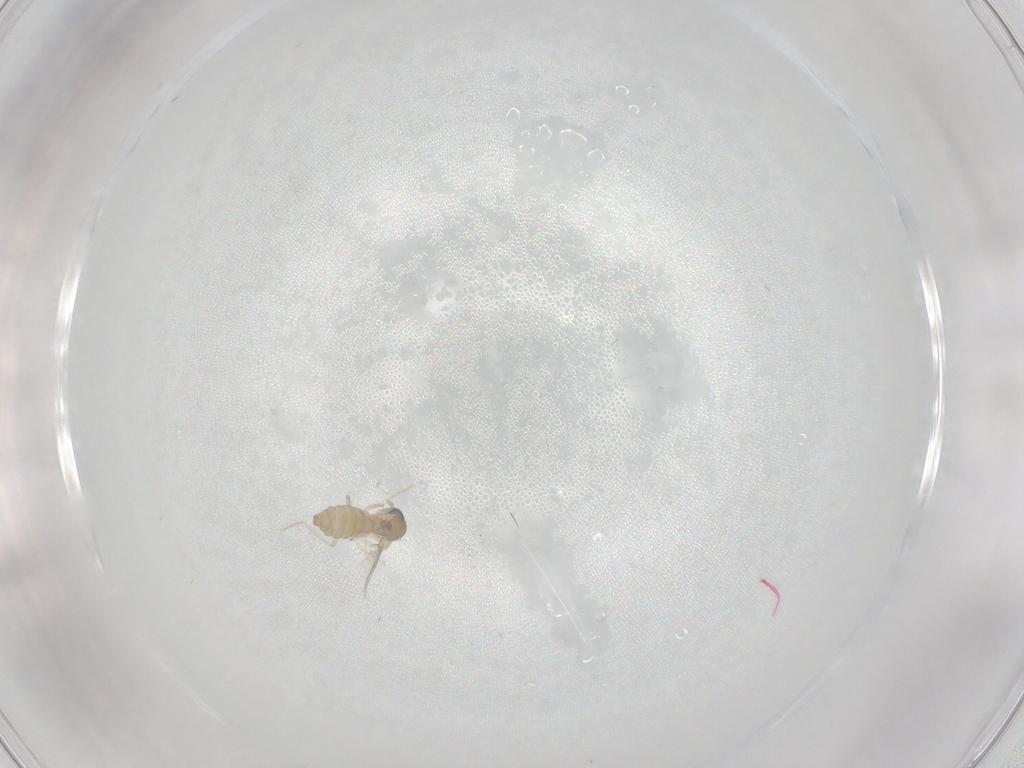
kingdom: Animalia
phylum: Arthropoda
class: Insecta
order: Diptera
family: Cecidomyiidae
